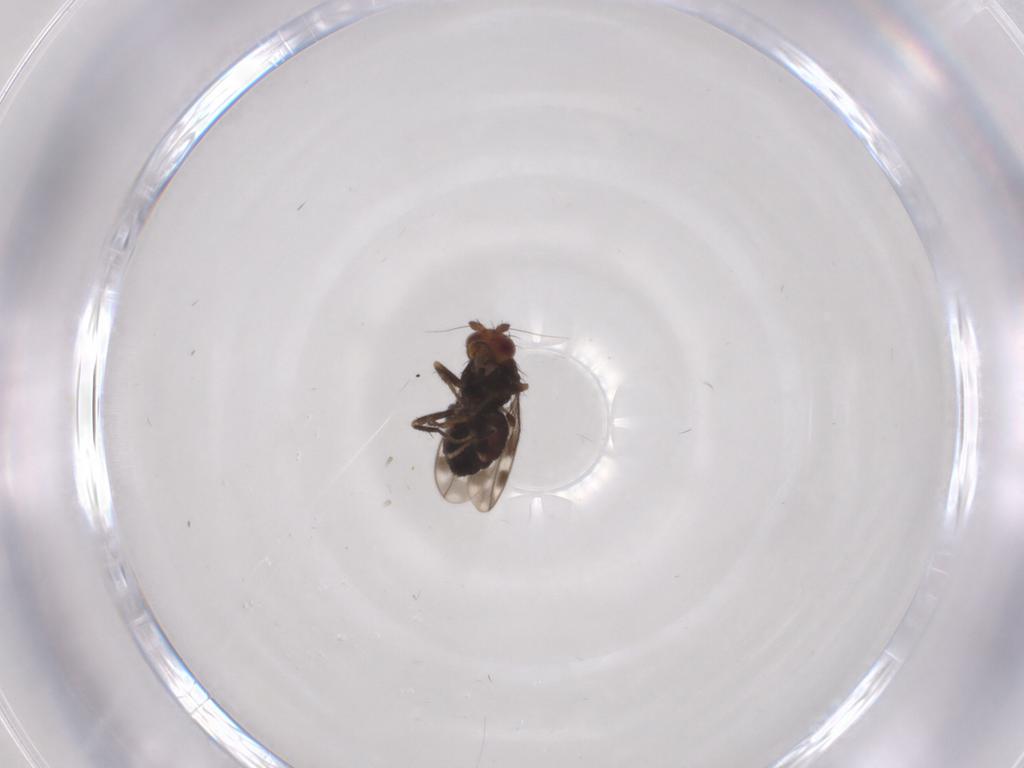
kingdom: Animalia
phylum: Arthropoda
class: Insecta
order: Diptera
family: Sphaeroceridae
